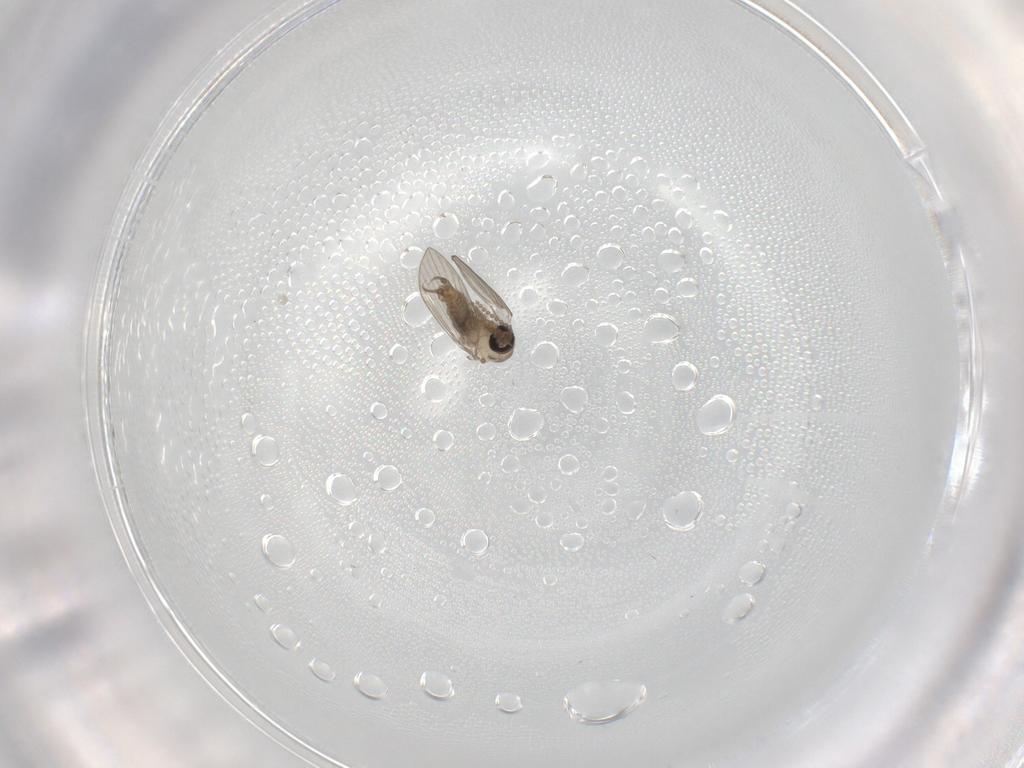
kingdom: Animalia
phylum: Arthropoda
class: Insecta
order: Diptera
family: Psychodidae
